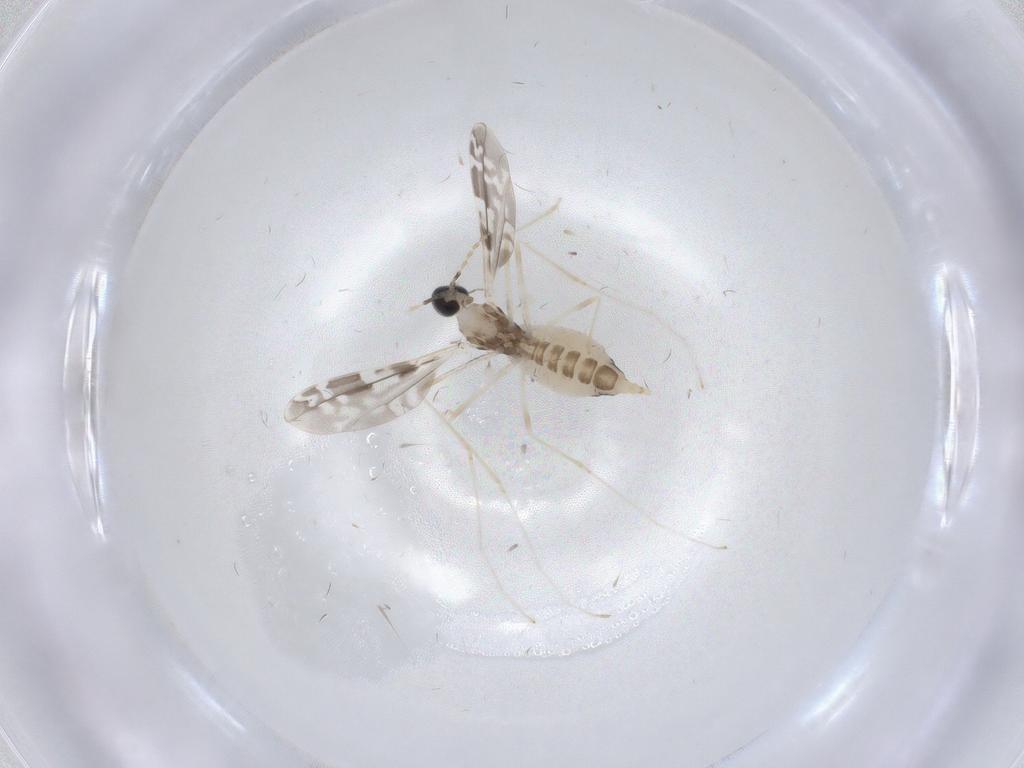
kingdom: Animalia
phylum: Arthropoda
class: Insecta
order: Diptera
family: Cecidomyiidae
